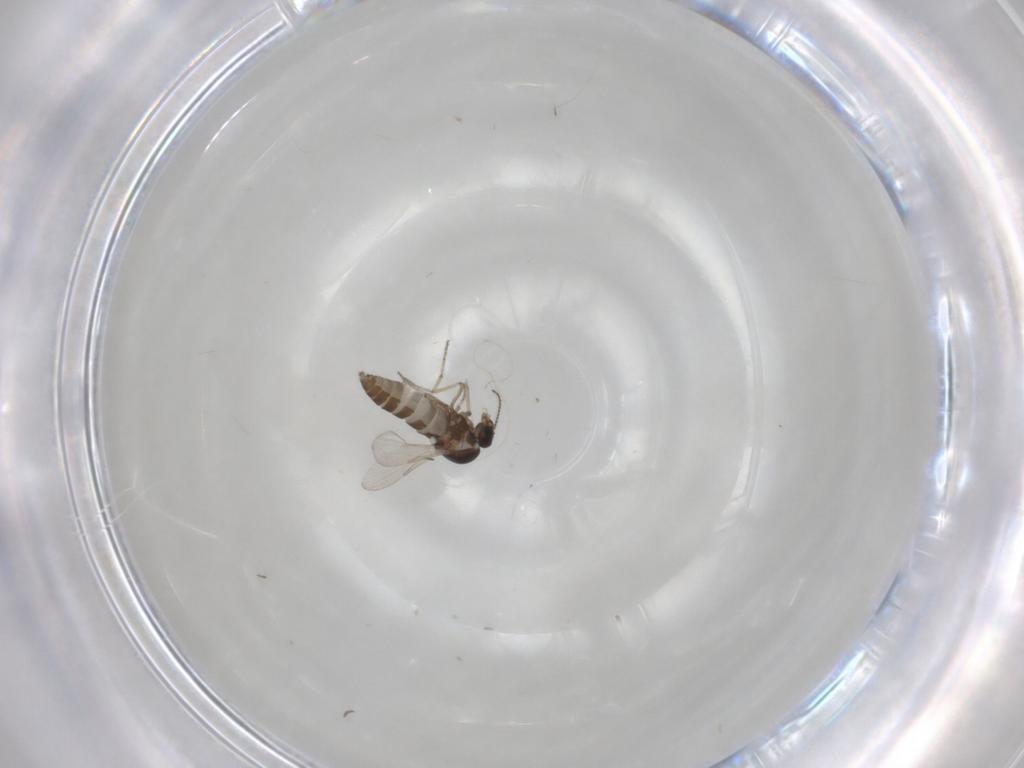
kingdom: Animalia
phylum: Arthropoda
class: Insecta
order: Diptera
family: Ceratopogonidae
